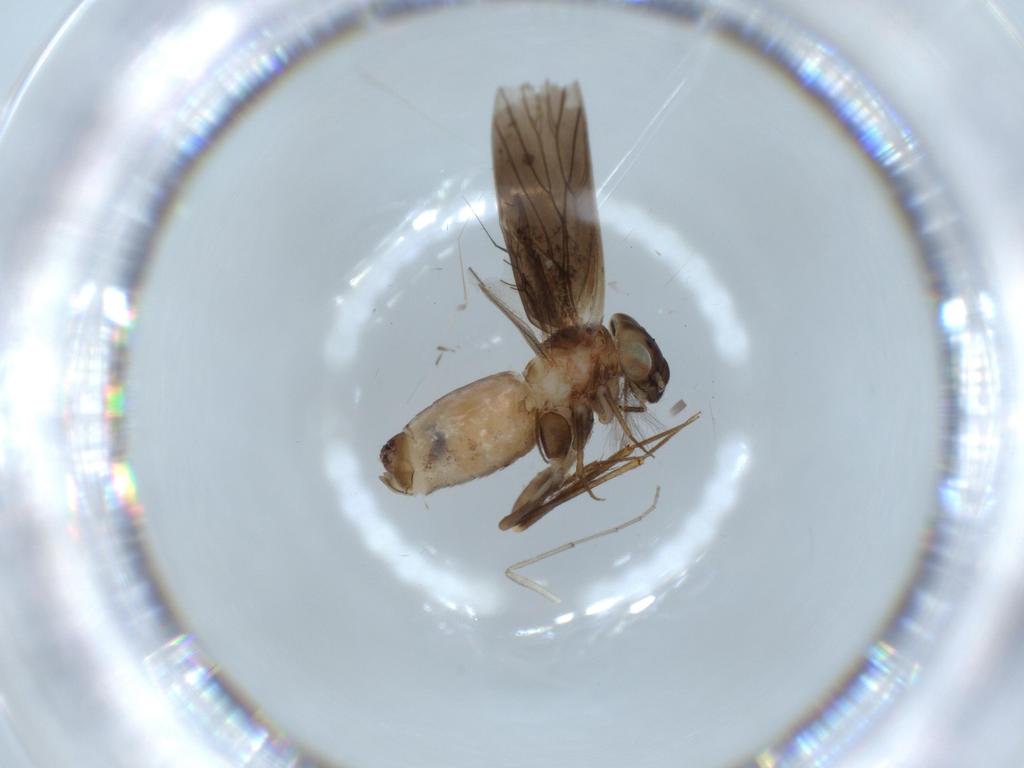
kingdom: Animalia
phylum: Arthropoda
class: Insecta
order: Psocodea
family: Lepidopsocidae
